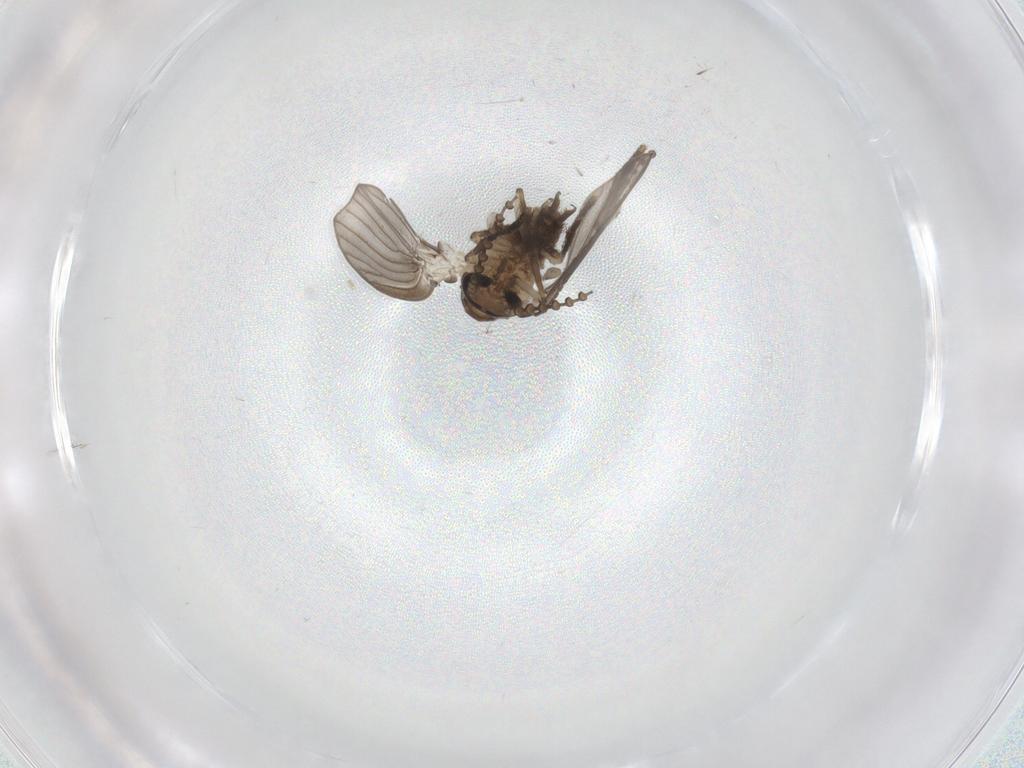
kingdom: Animalia
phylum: Arthropoda
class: Insecta
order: Diptera
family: Psychodidae
